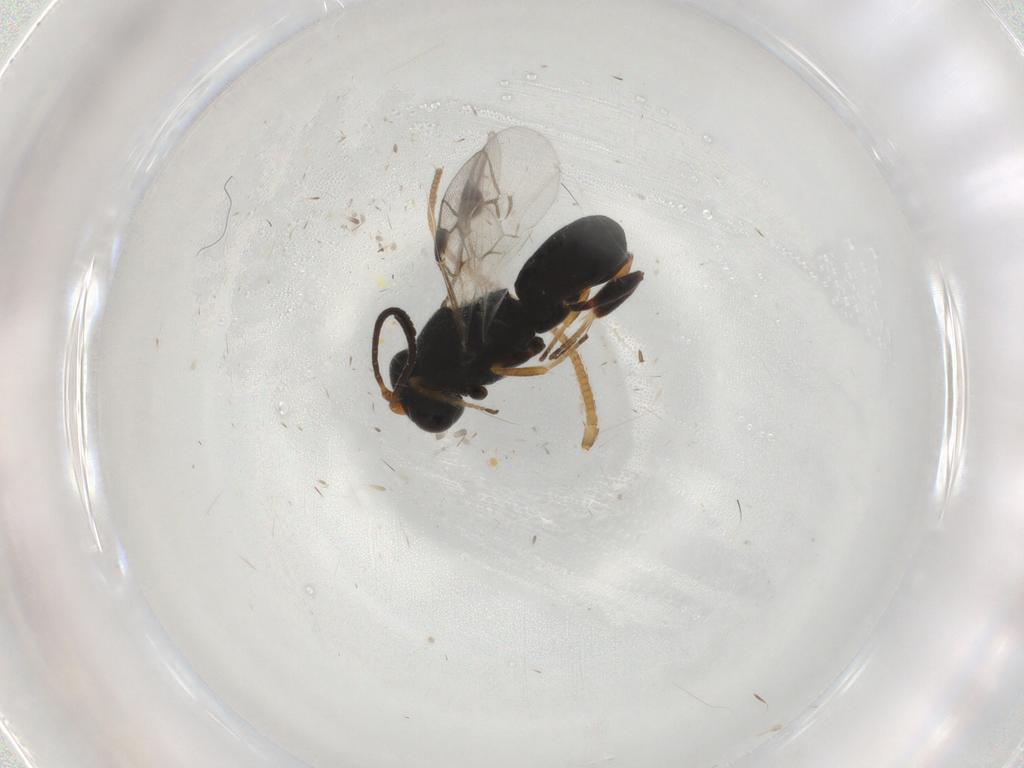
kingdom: Animalia
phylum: Arthropoda
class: Insecta
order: Hymenoptera
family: Braconidae
